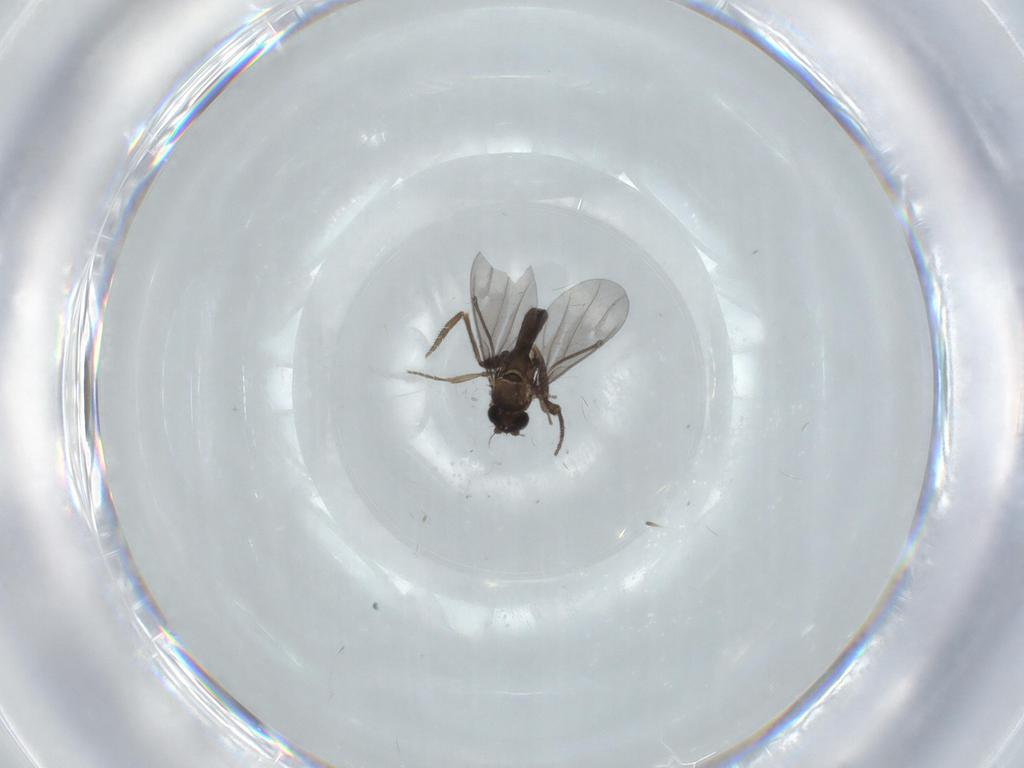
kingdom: Animalia
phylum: Arthropoda
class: Insecta
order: Diptera
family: Phoridae
